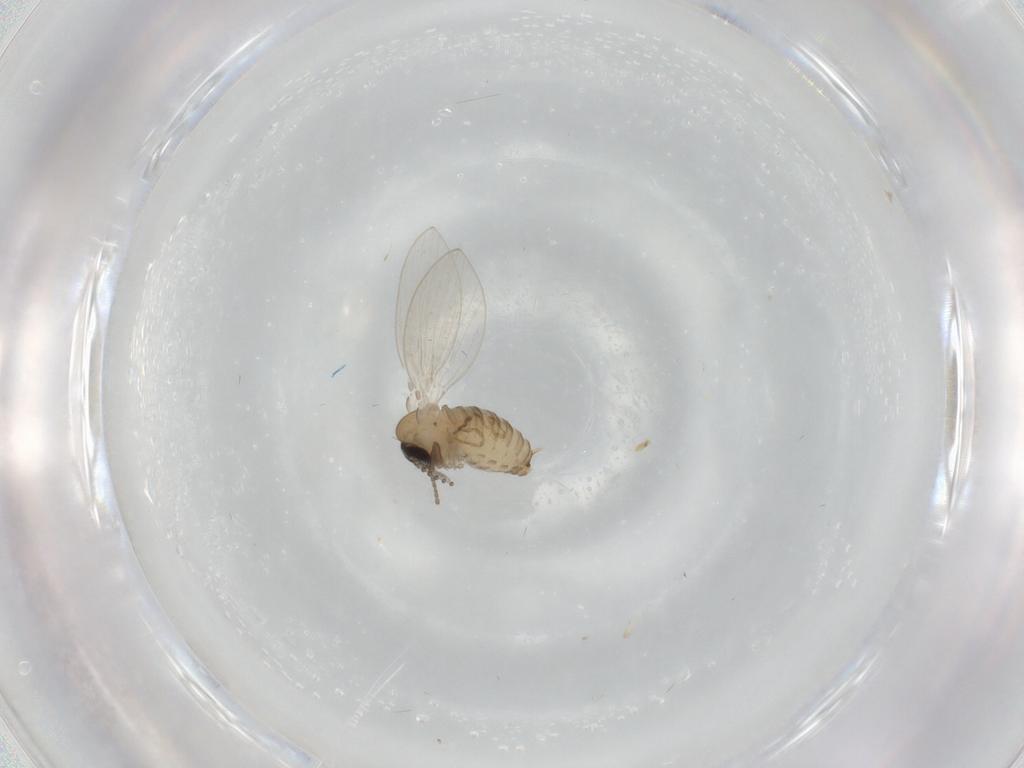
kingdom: Animalia
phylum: Arthropoda
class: Insecta
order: Diptera
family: Psychodidae
